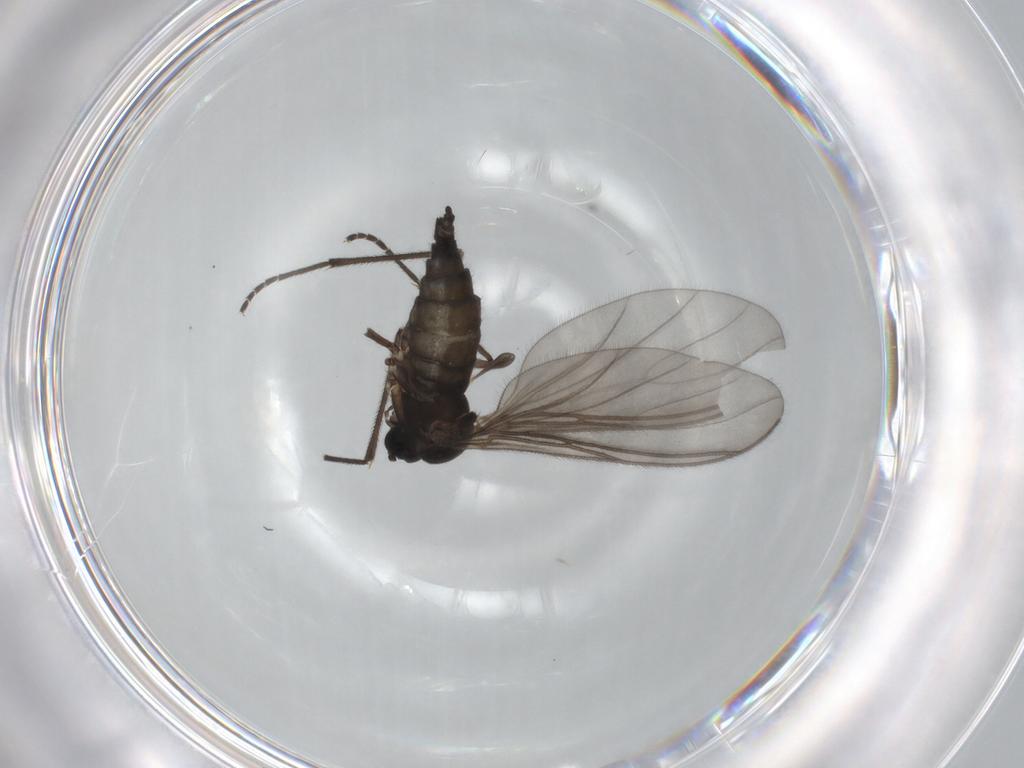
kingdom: Animalia
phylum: Arthropoda
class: Insecta
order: Diptera
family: Sciaridae
